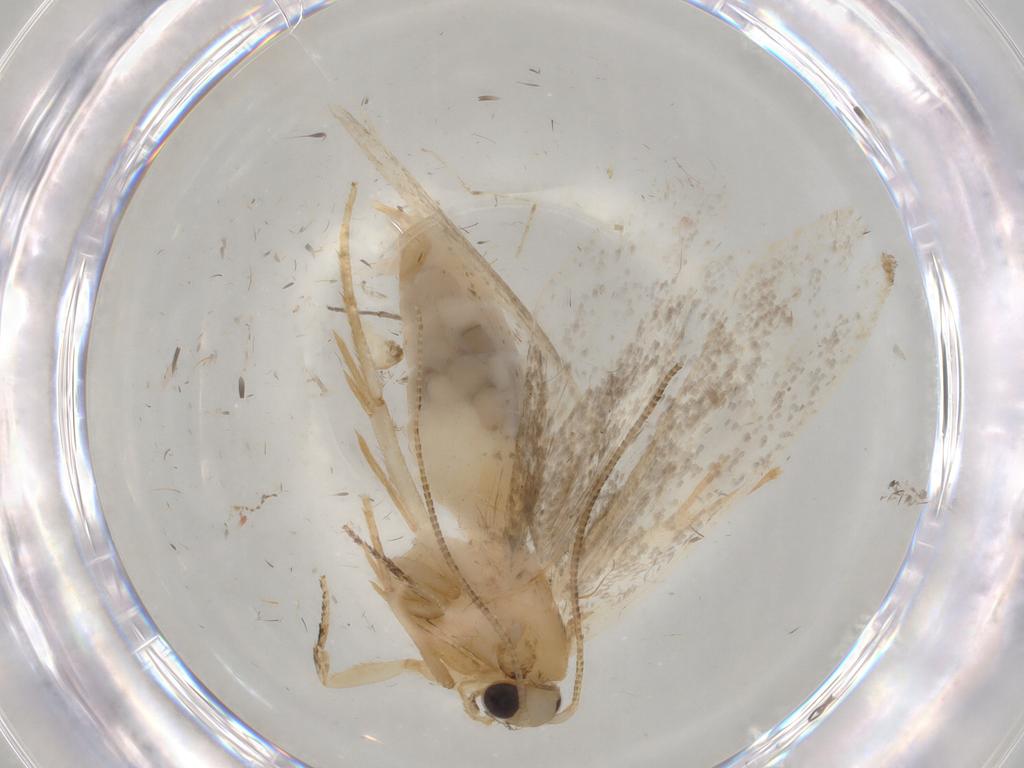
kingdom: Animalia
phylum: Arthropoda
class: Insecta
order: Lepidoptera
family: Tineidae
